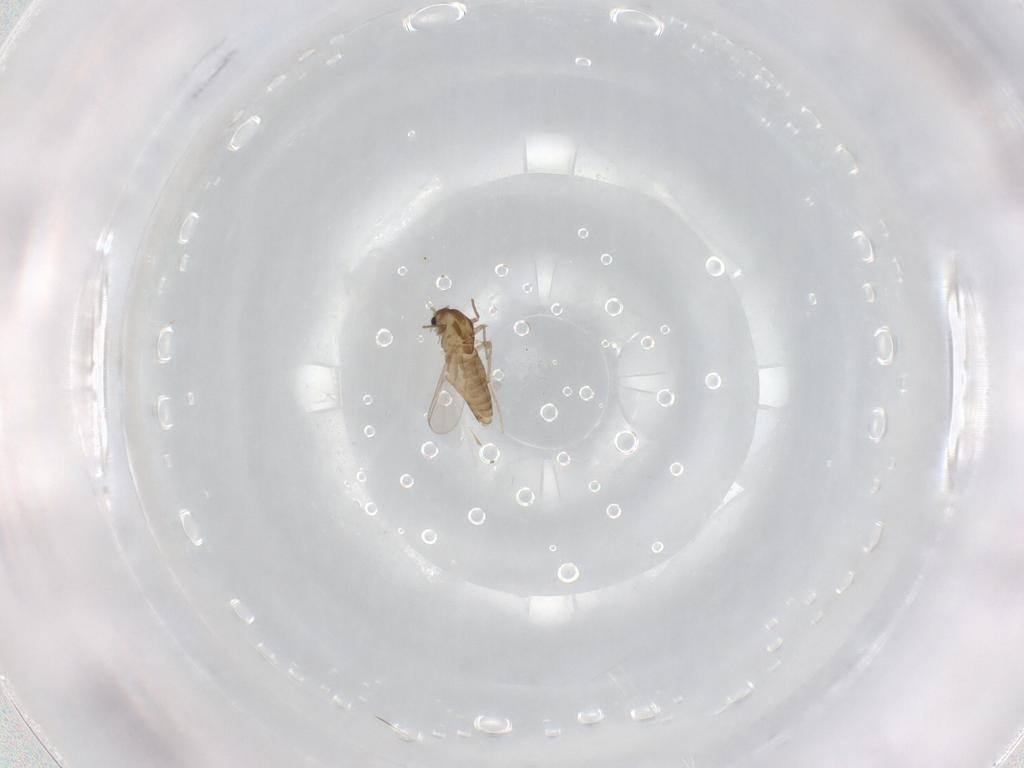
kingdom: Animalia
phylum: Arthropoda
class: Insecta
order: Diptera
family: Chironomidae
